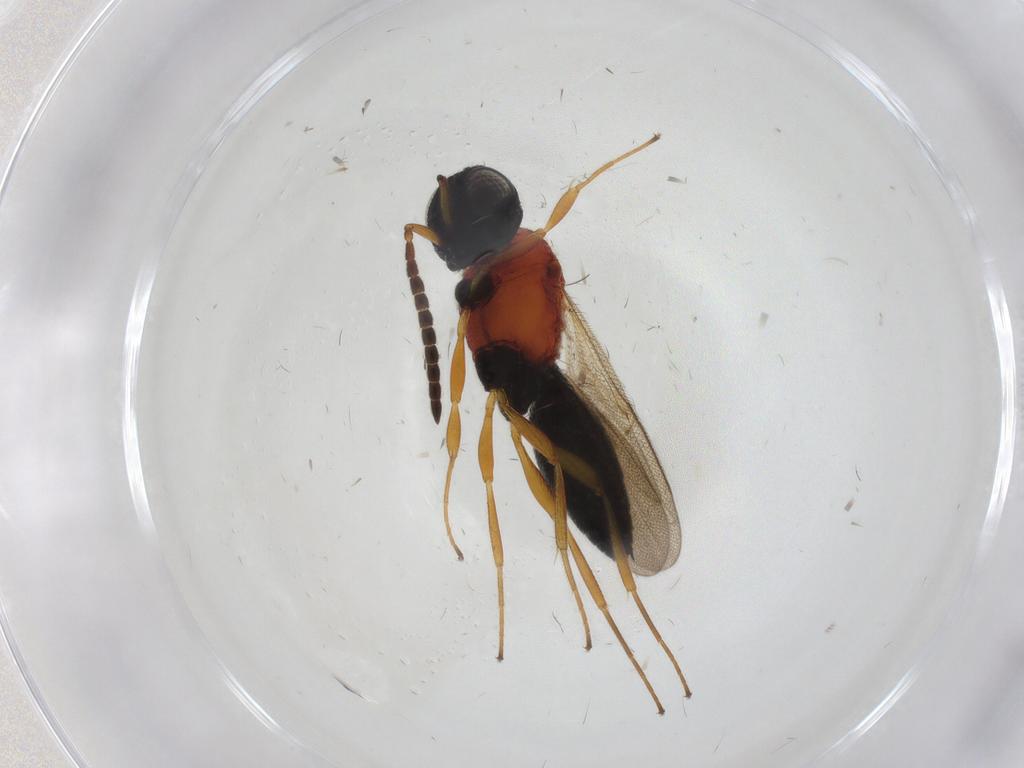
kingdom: Animalia
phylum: Arthropoda
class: Insecta
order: Hymenoptera
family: Scelionidae
